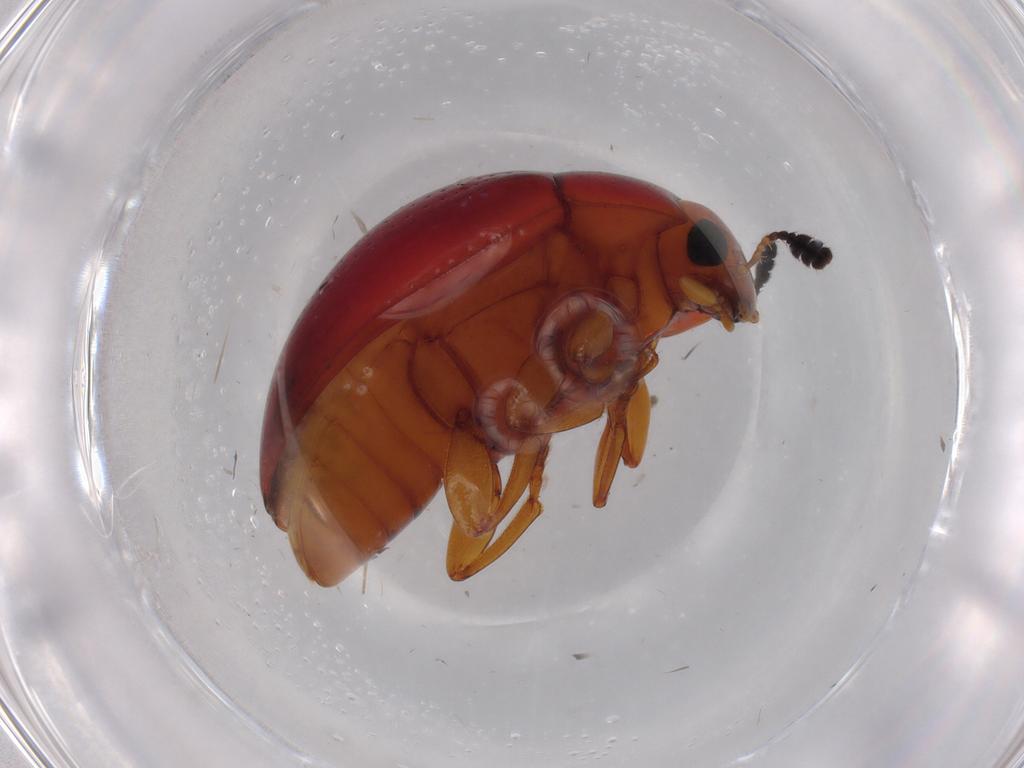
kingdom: Animalia
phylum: Arthropoda
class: Insecta
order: Coleoptera
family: Erotylidae
